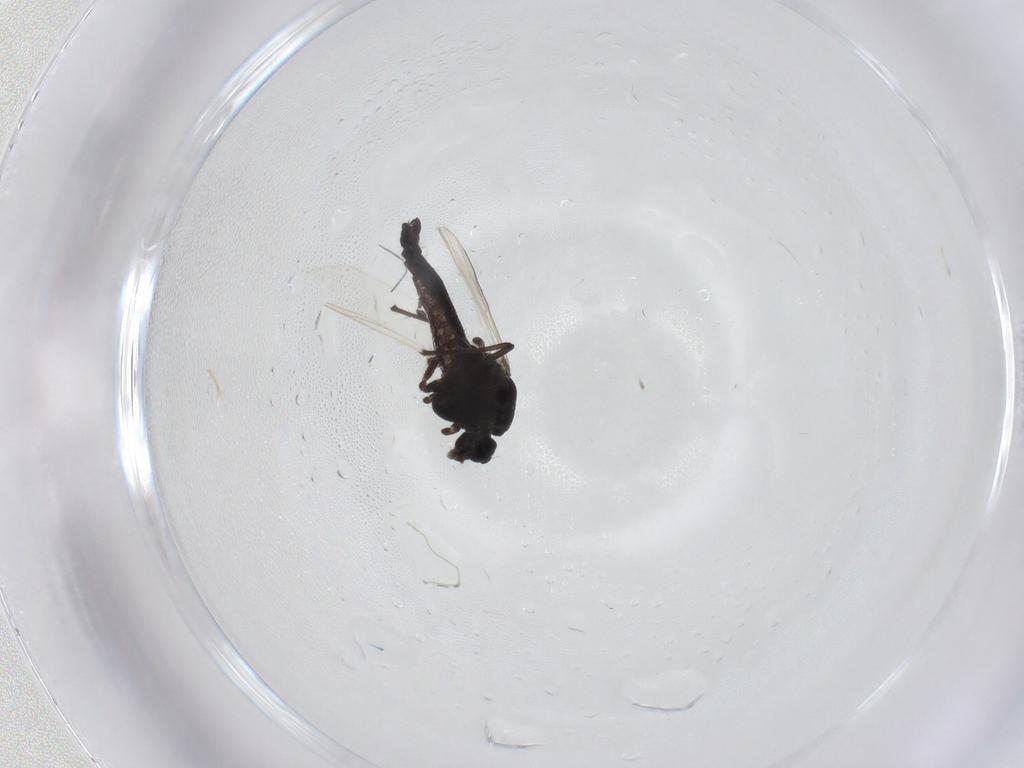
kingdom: Animalia
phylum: Arthropoda
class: Insecta
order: Diptera
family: Chironomidae
